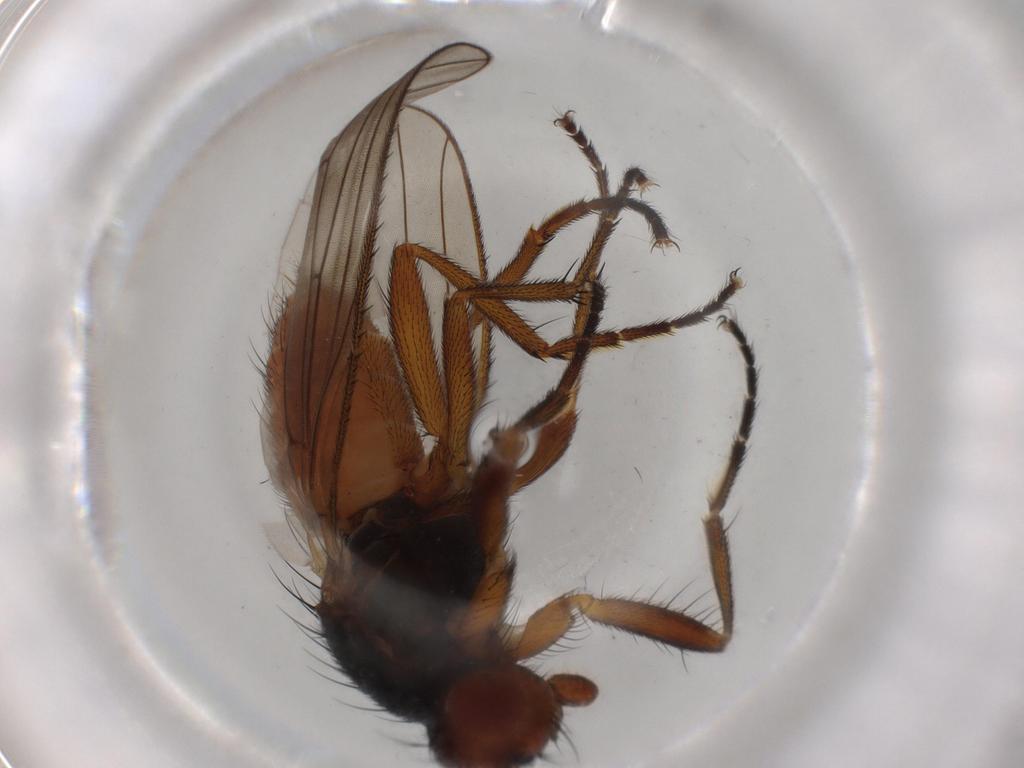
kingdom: Animalia
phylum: Arthropoda
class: Insecta
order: Diptera
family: Heleomyzidae
